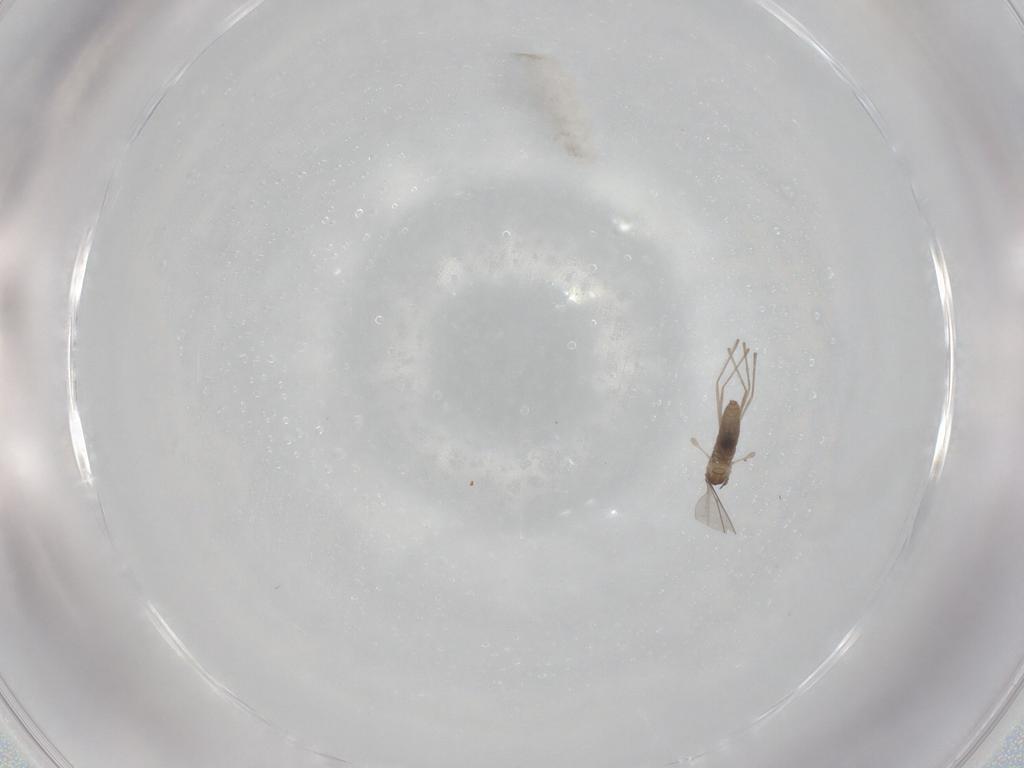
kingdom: Animalia
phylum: Arthropoda
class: Insecta
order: Diptera
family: Cecidomyiidae
